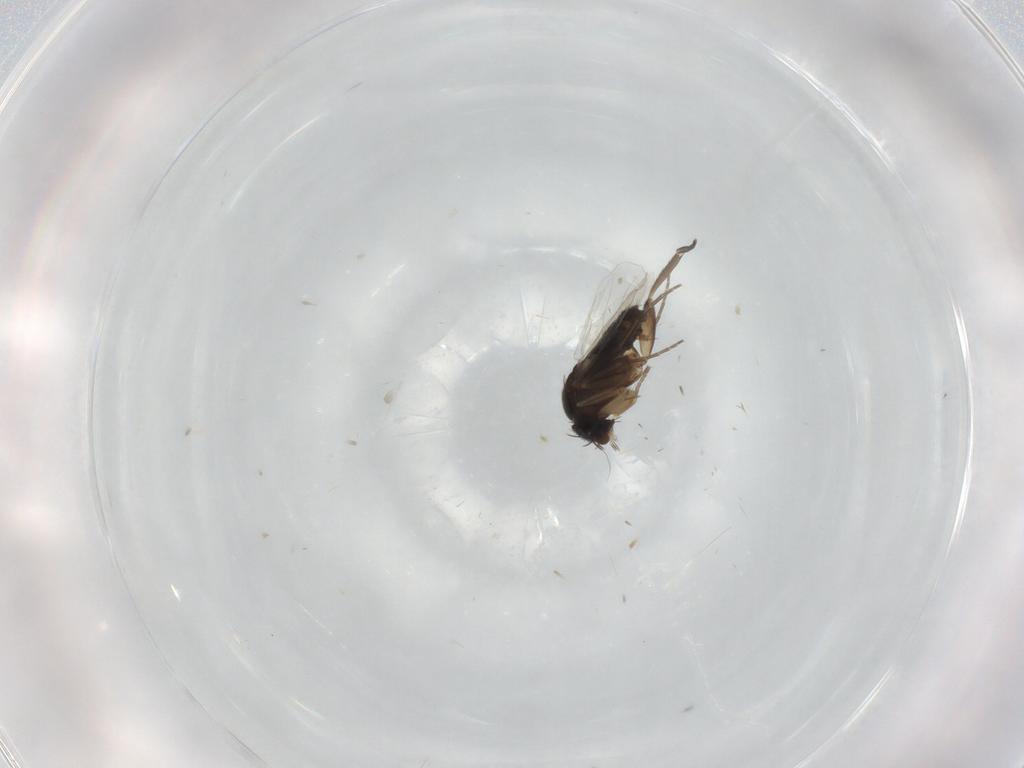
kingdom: Animalia
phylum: Arthropoda
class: Insecta
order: Diptera
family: Phoridae
